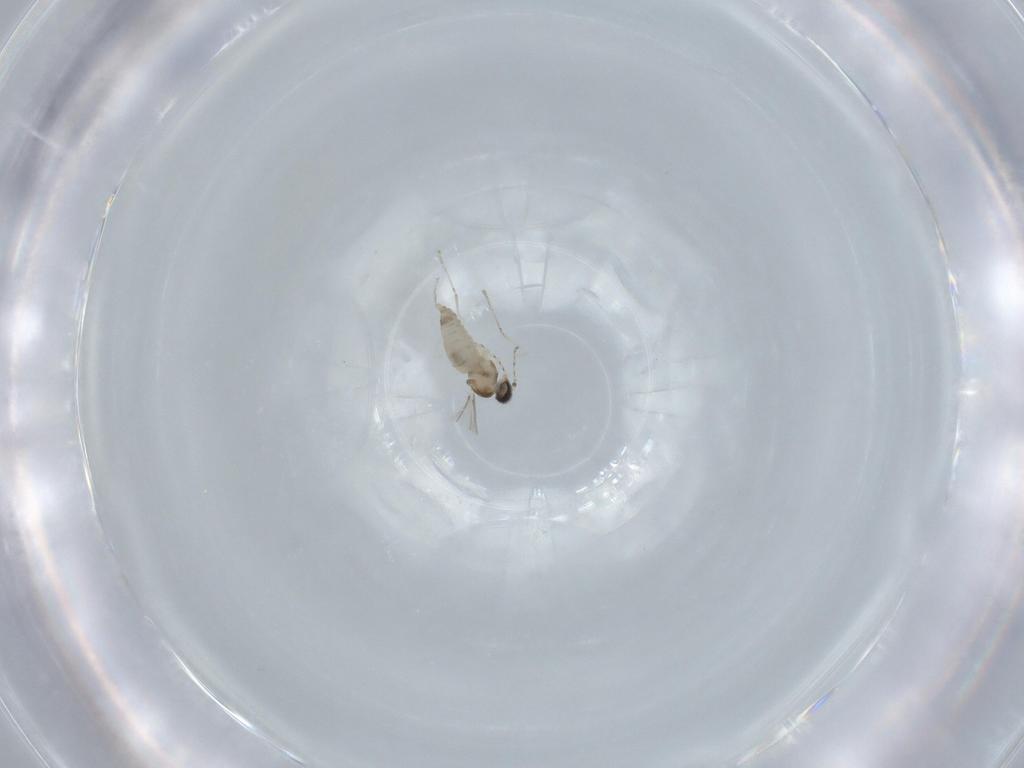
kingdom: Animalia
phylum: Arthropoda
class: Insecta
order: Diptera
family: Cecidomyiidae
